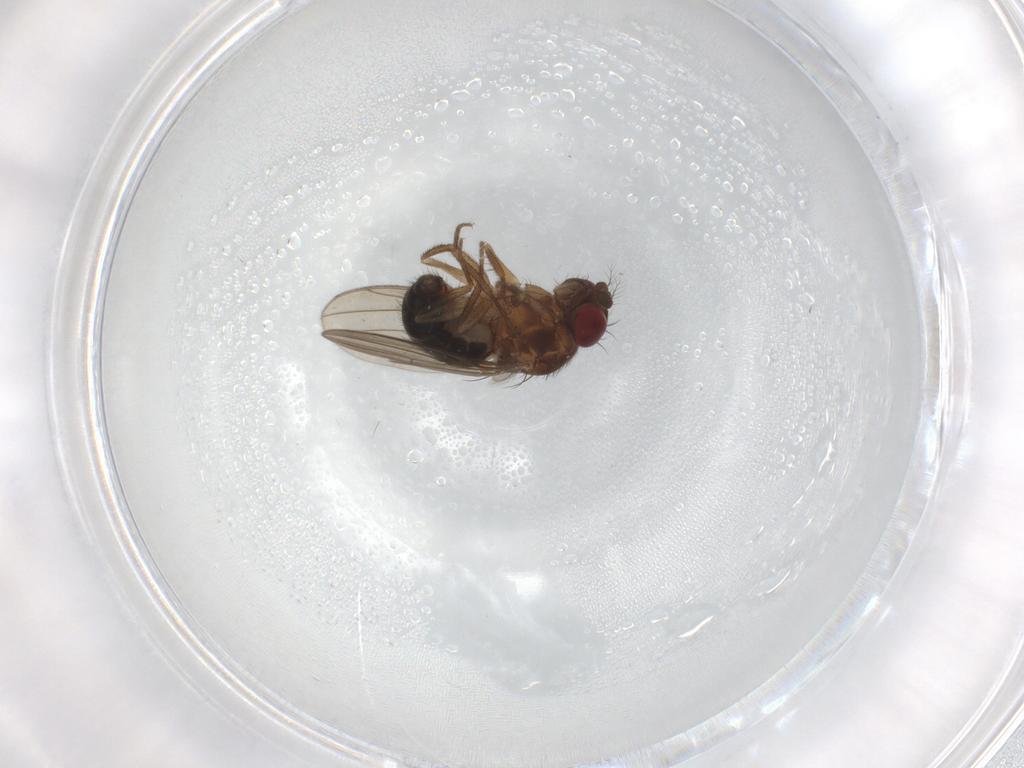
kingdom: Animalia
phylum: Arthropoda
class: Insecta
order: Diptera
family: Drosophilidae
